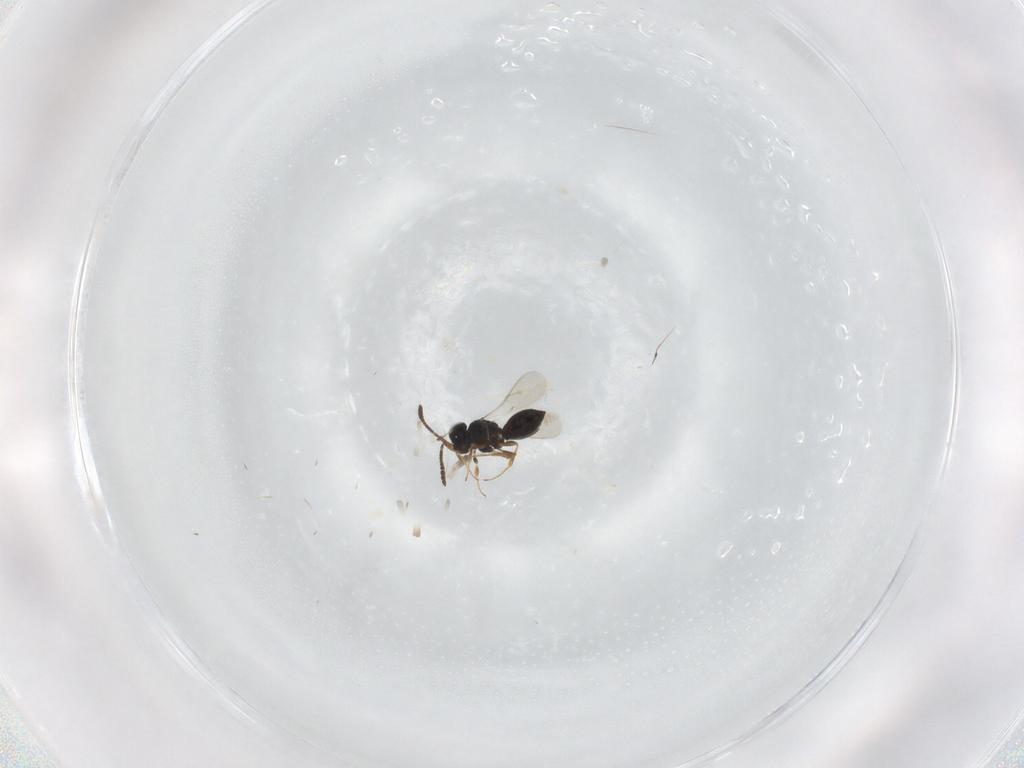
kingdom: Animalia
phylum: Arthropoda
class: Insecta
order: Hymenoptera
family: Scelionidae
